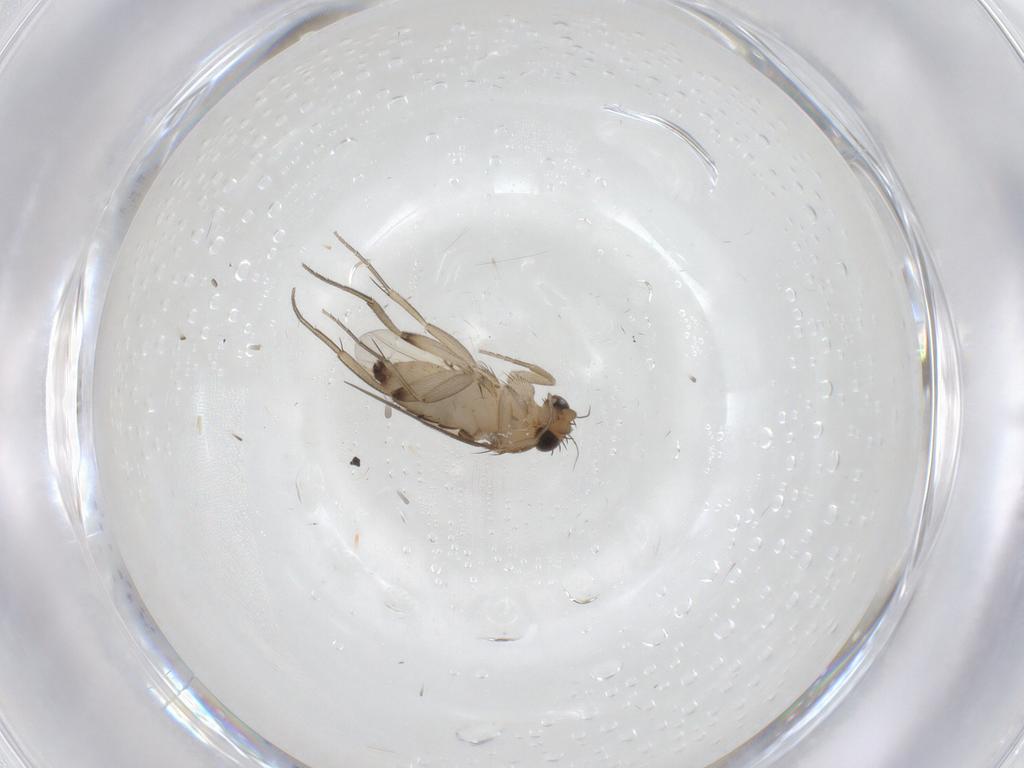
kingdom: Animalia
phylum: Arthropoda
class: Insecta
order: Diptera
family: Phoridae
